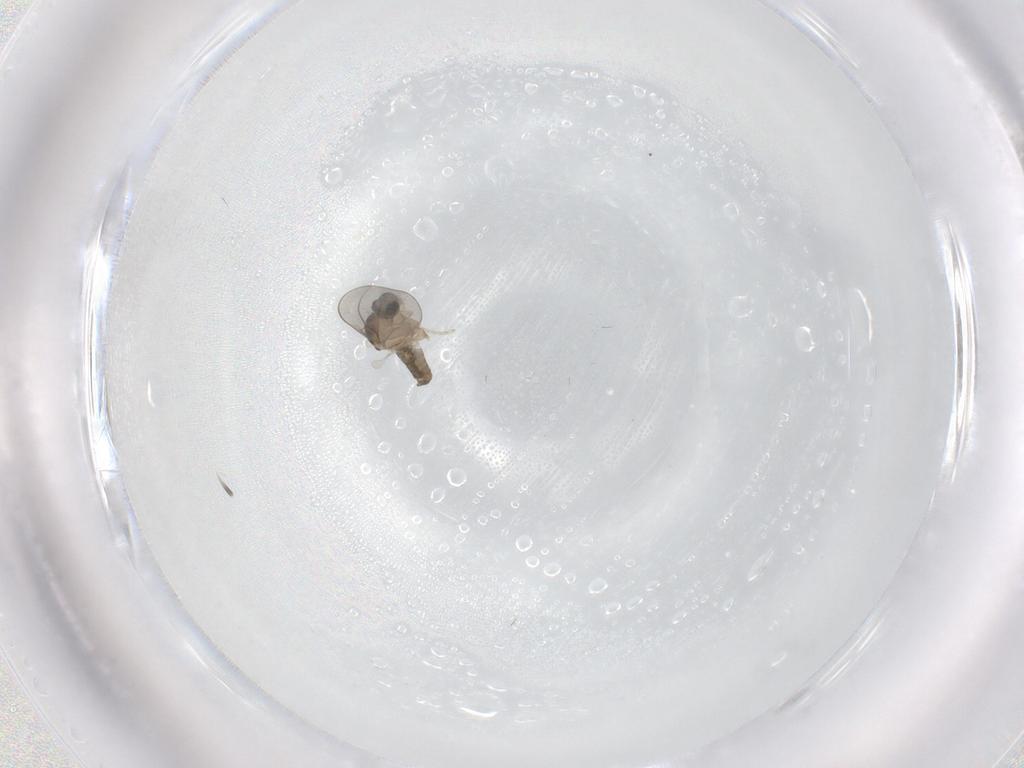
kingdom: Animalia
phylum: Arthropoda
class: Insecta
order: Diptera
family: Cecidomyiidae
